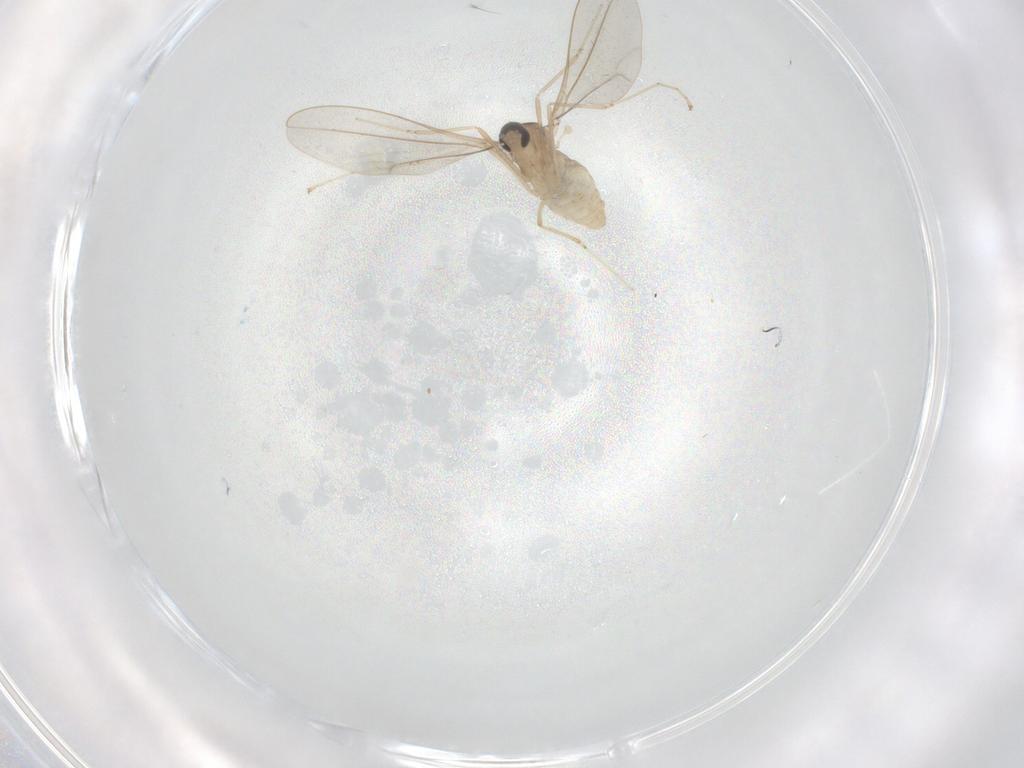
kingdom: Animalia
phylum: Arthropoda
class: Insecta
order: Diptera
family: Cecidomyiidae
